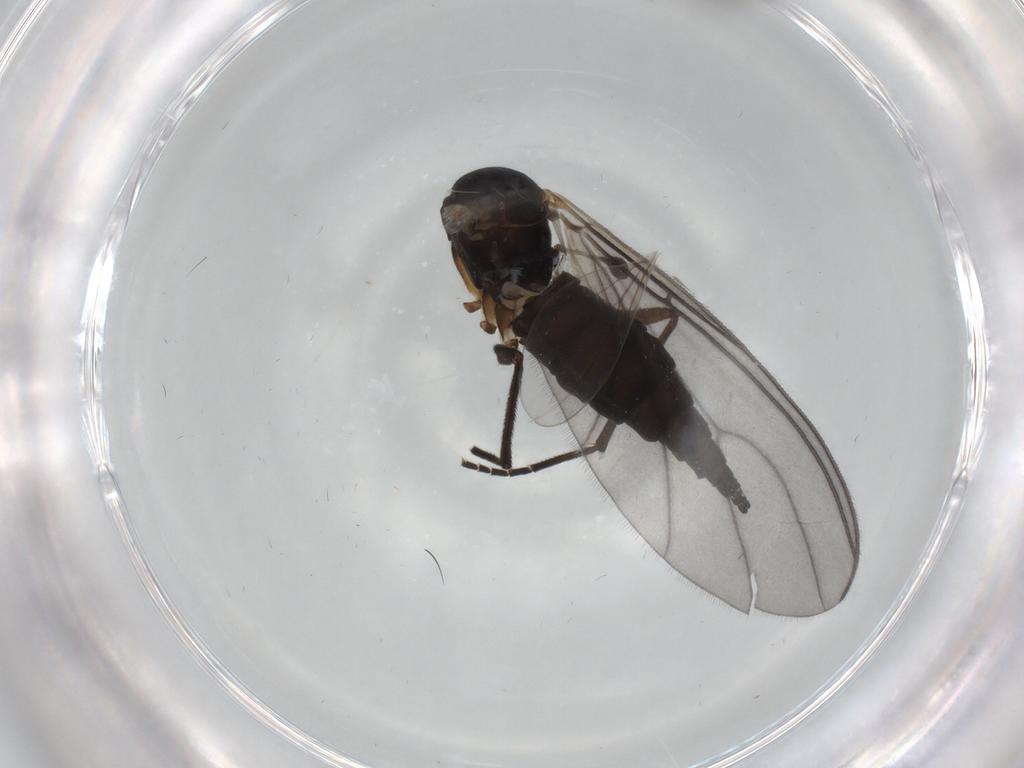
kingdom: Animalia
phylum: Arthropoda
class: Insecta
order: Diptera
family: Sciaridae
